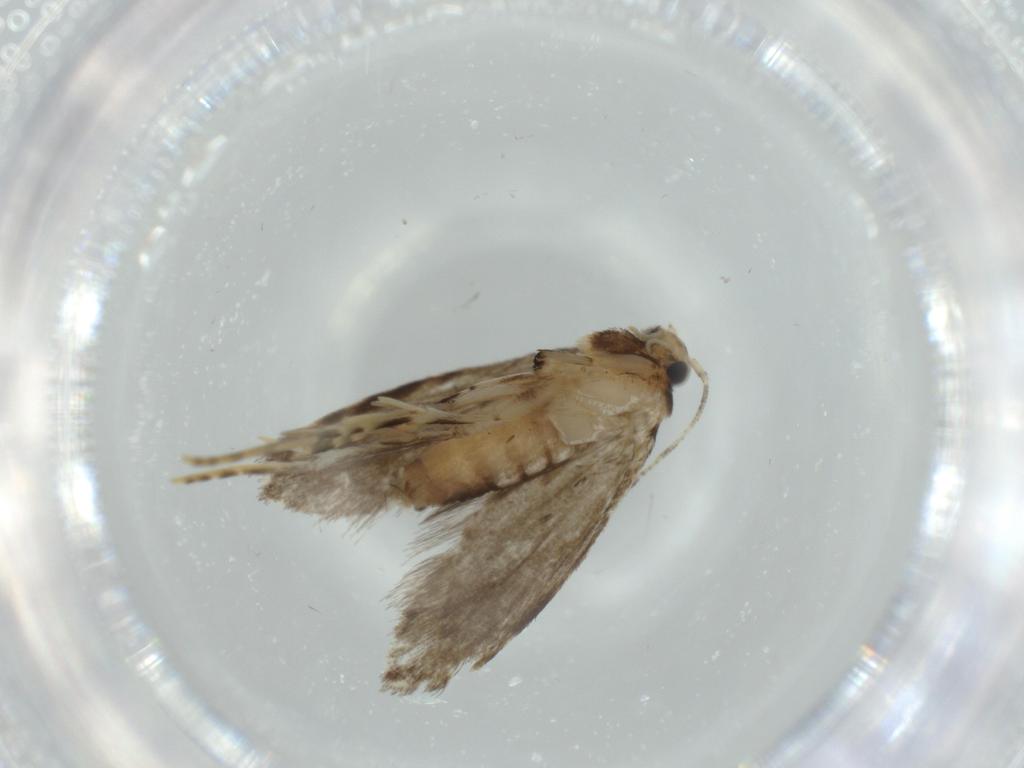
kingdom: Animalia
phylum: Arthropoda
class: Insecta
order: Lepidoptera
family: Tineidae
